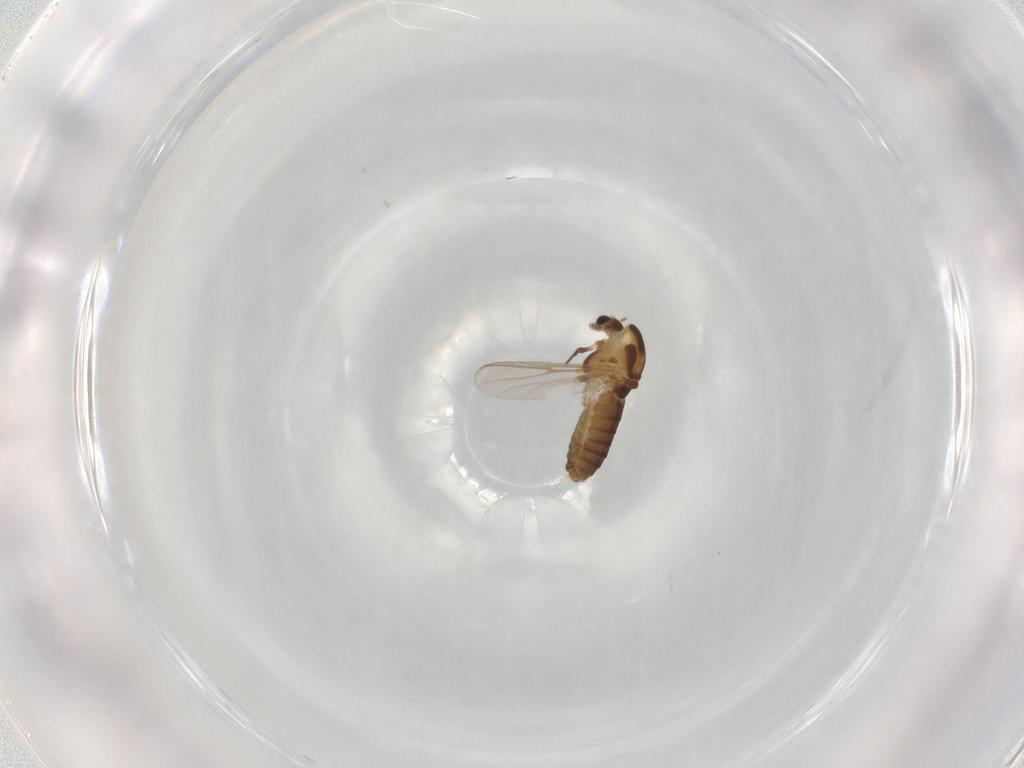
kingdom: Animalia
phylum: Arthropoda
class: Insecta
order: Diptera
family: Chironomidae
